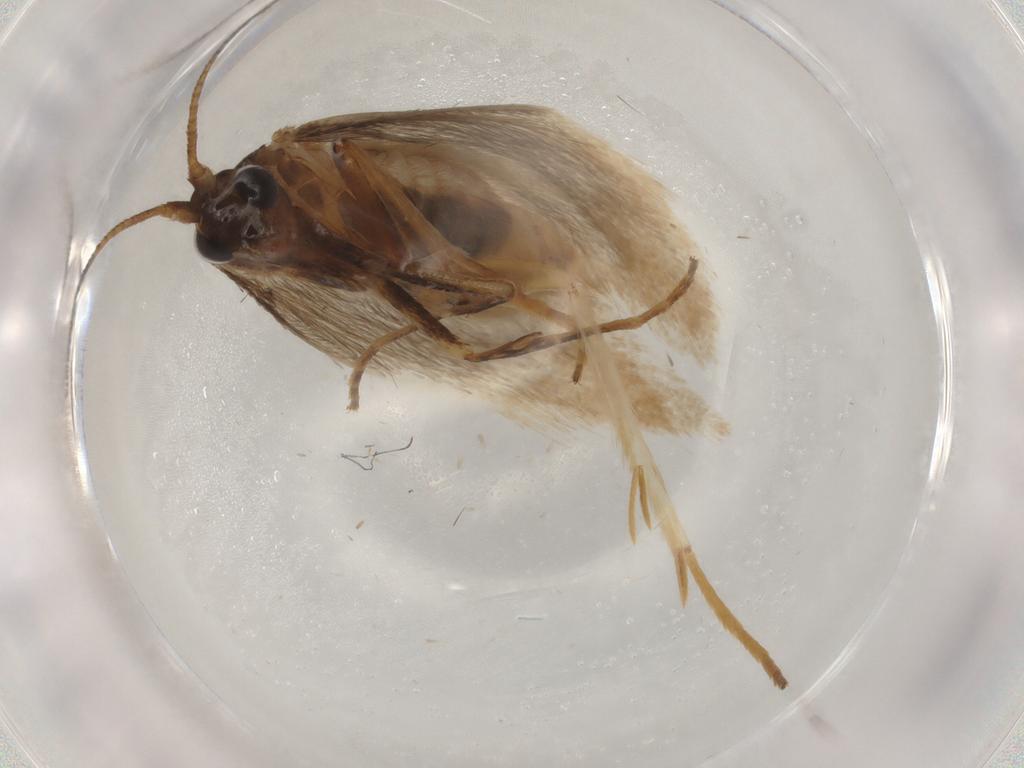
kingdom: Animalia
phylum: Arthropoda
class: Insecta
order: Lepidoptera
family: Adelidae
